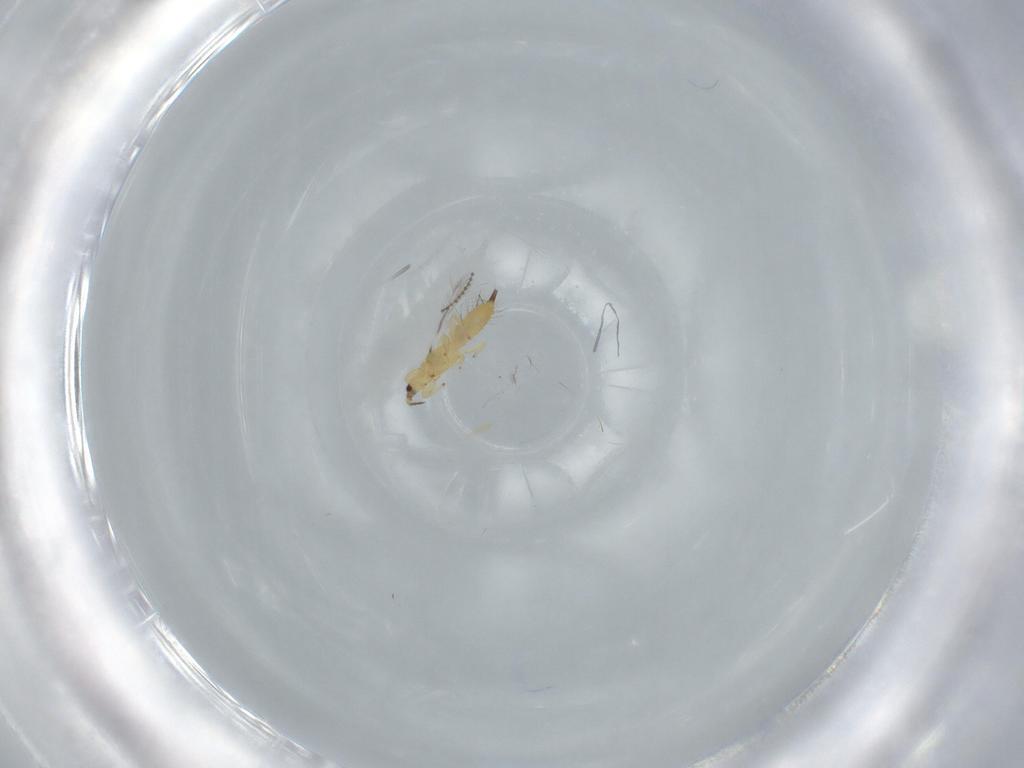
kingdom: Animalia
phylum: Arthropoda
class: Insecta
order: Thysanoptera
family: Phlaeothripidae
